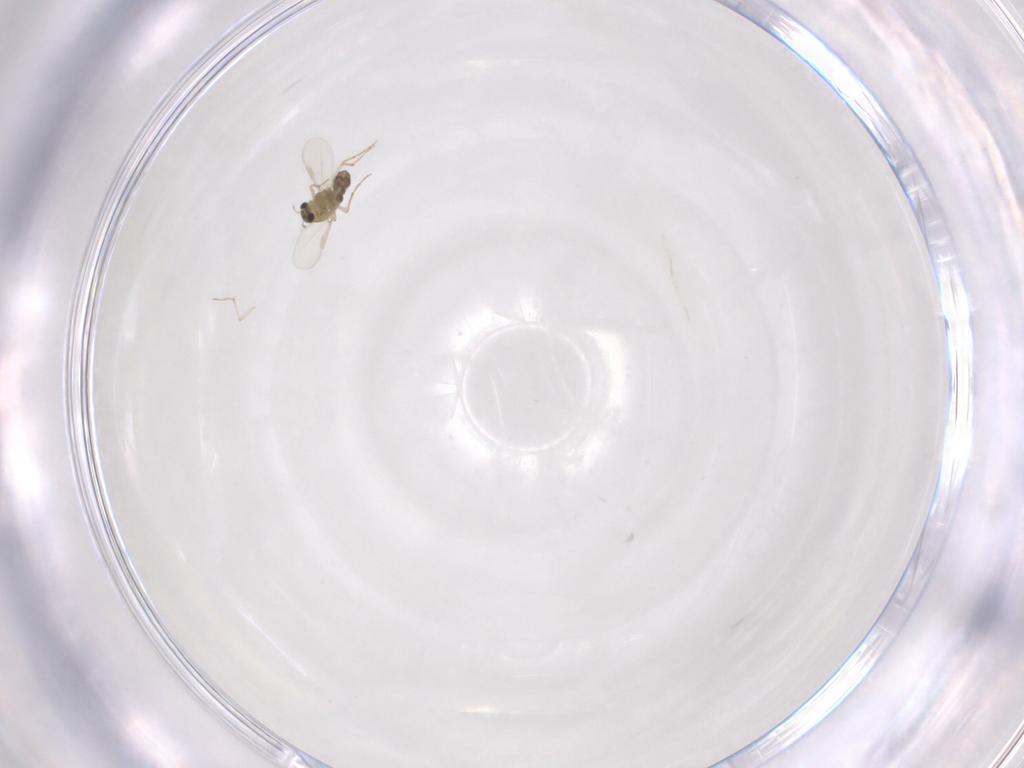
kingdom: Animalia
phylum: Arthropoda
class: Insecta
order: Diptera
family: Chironomidae
